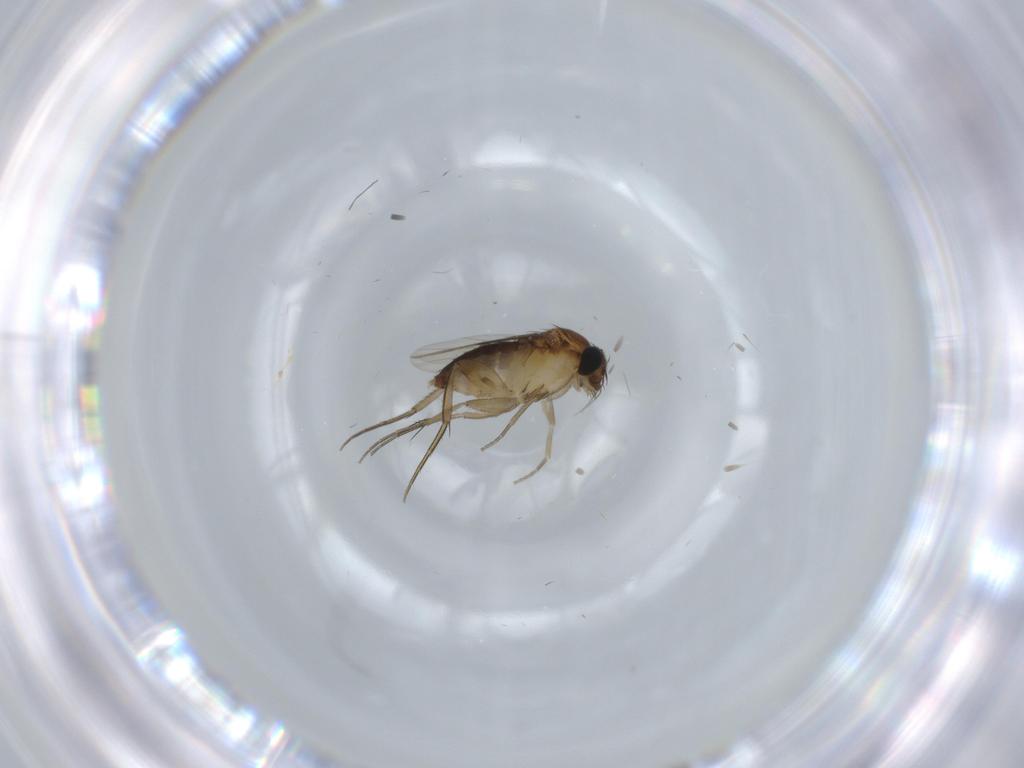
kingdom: Animalia
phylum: Arthropoda
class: Insecta
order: Diptera
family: Phoridae
